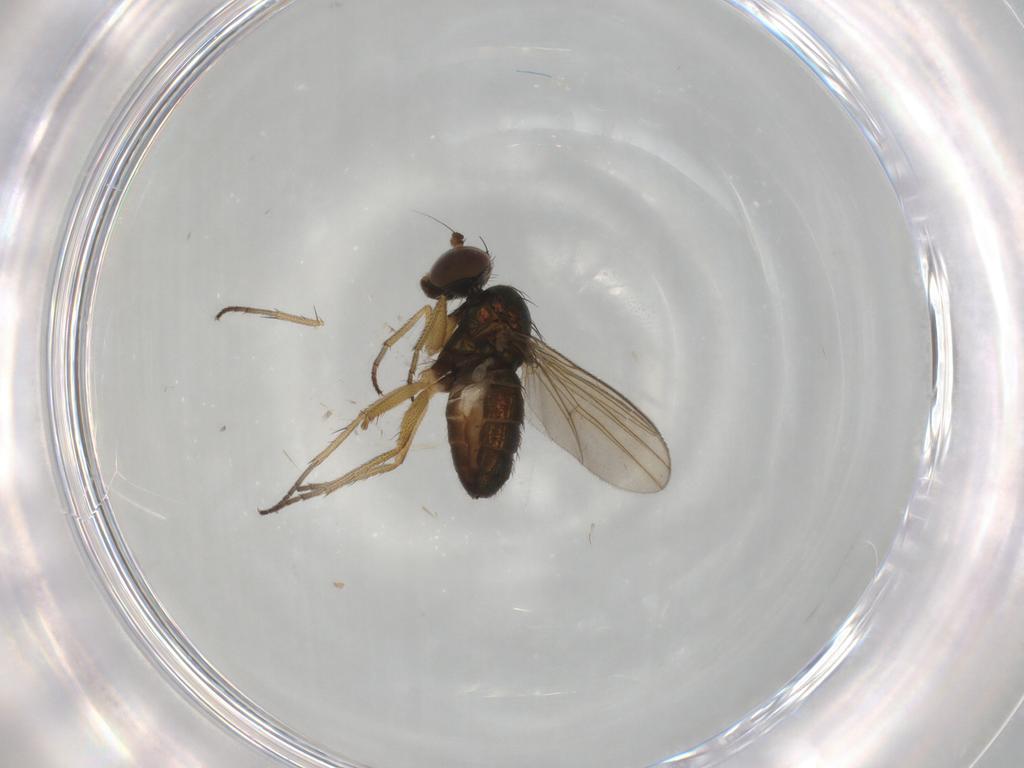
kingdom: Animalia
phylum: Arthropoda
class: Insecta
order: Diptera
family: Dolichopodidae
